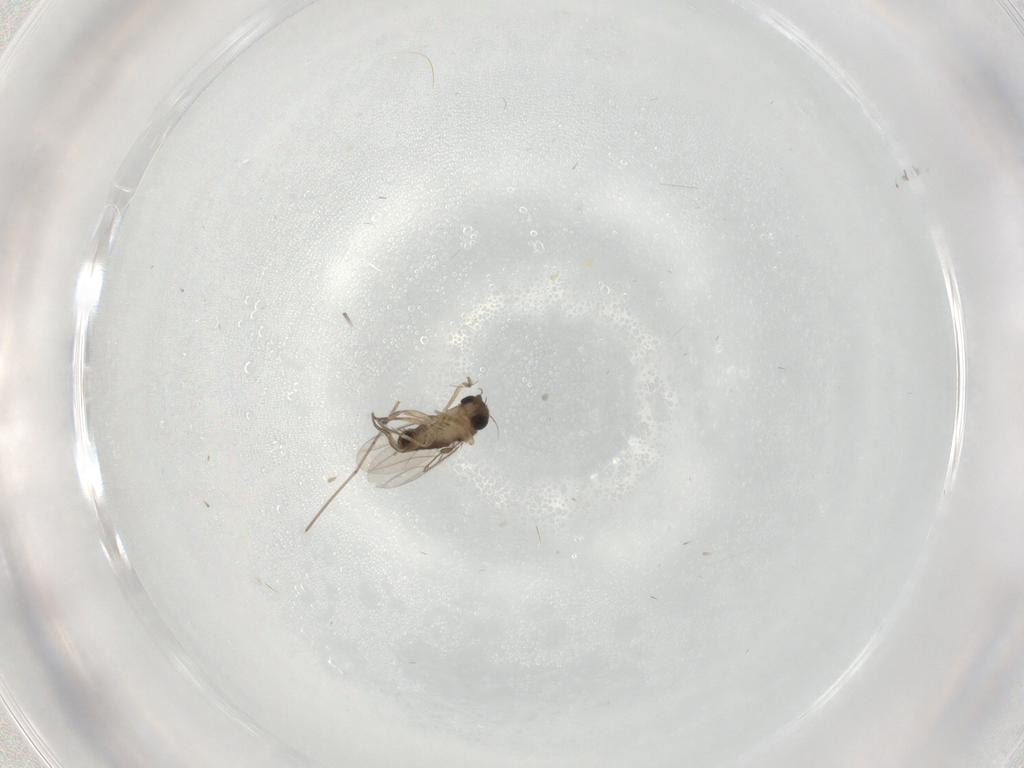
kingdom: Animalia
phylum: Arthropoda
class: Insecta
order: Diptera
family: Phoridae
